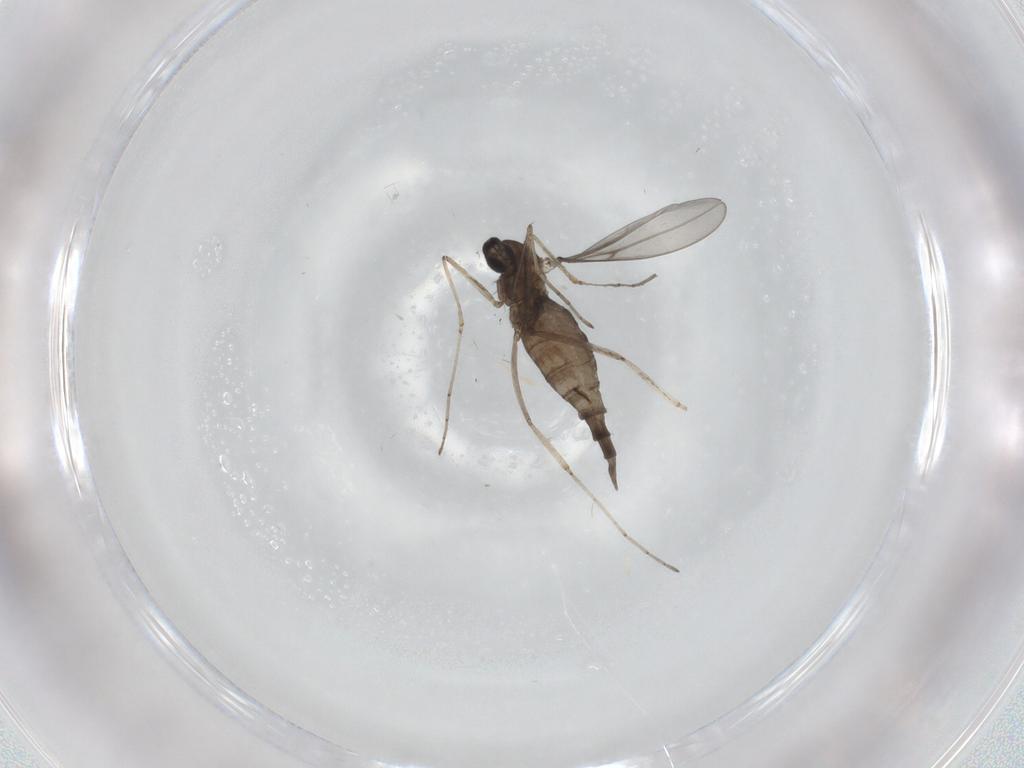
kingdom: Animalia
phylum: Arthropoda
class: Insecta
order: Diptera
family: Cecidomyiidae
